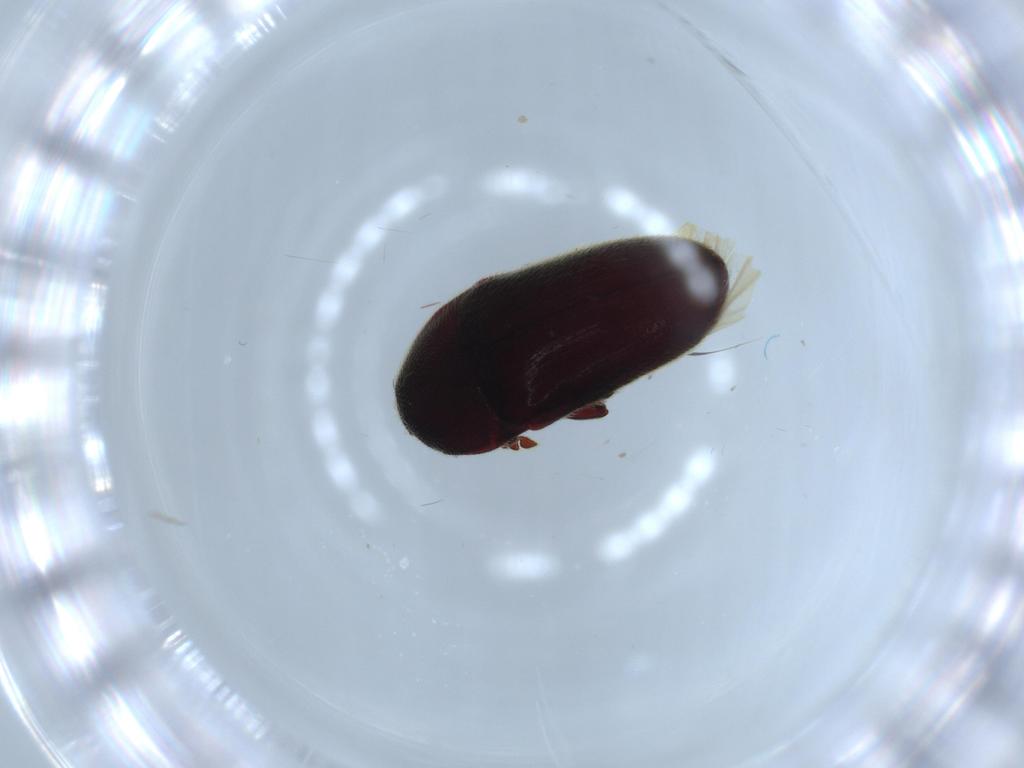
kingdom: Animalia
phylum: Arthropoda
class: Insecta
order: Coleoptera
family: Throscidae
